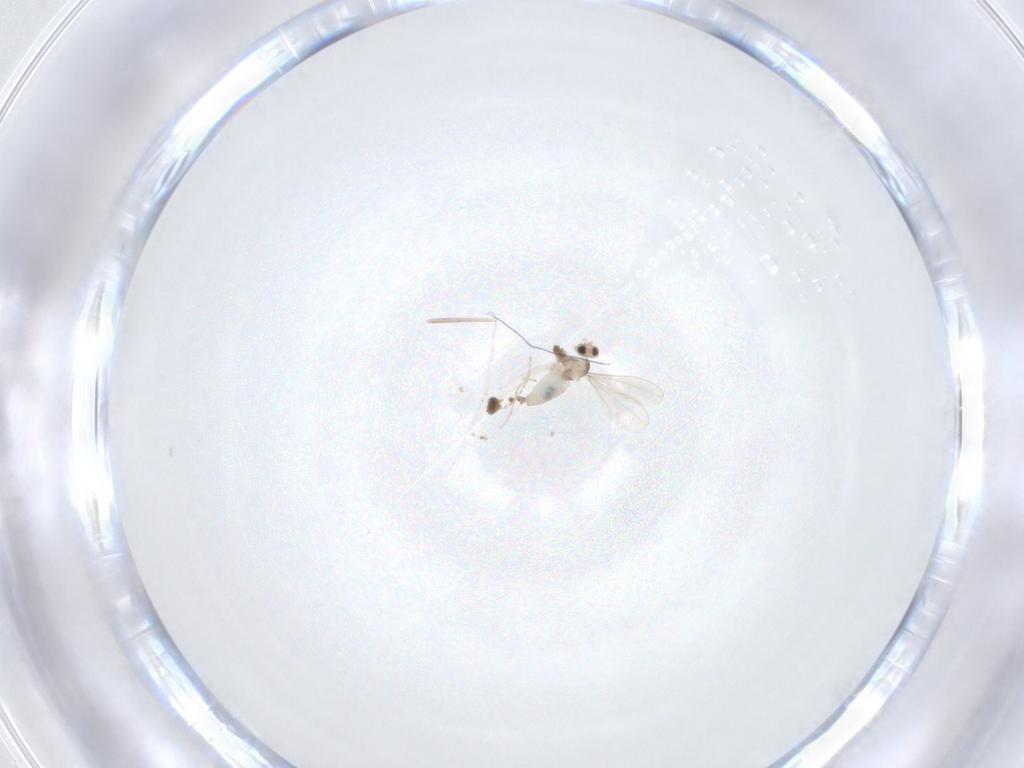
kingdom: Animalia
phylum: Arthropoda
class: Insecta
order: Diptera
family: Cecidomyiidae
